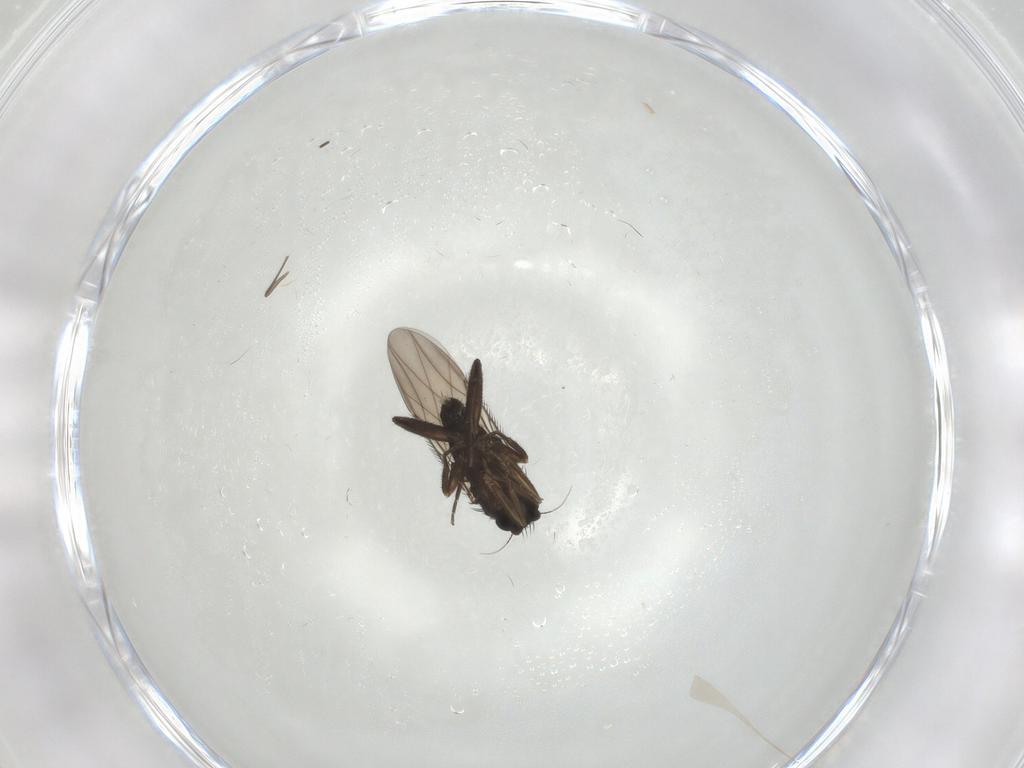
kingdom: Animalia
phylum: Arthropoda
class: Insecta
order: Diptera
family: Phoridae
